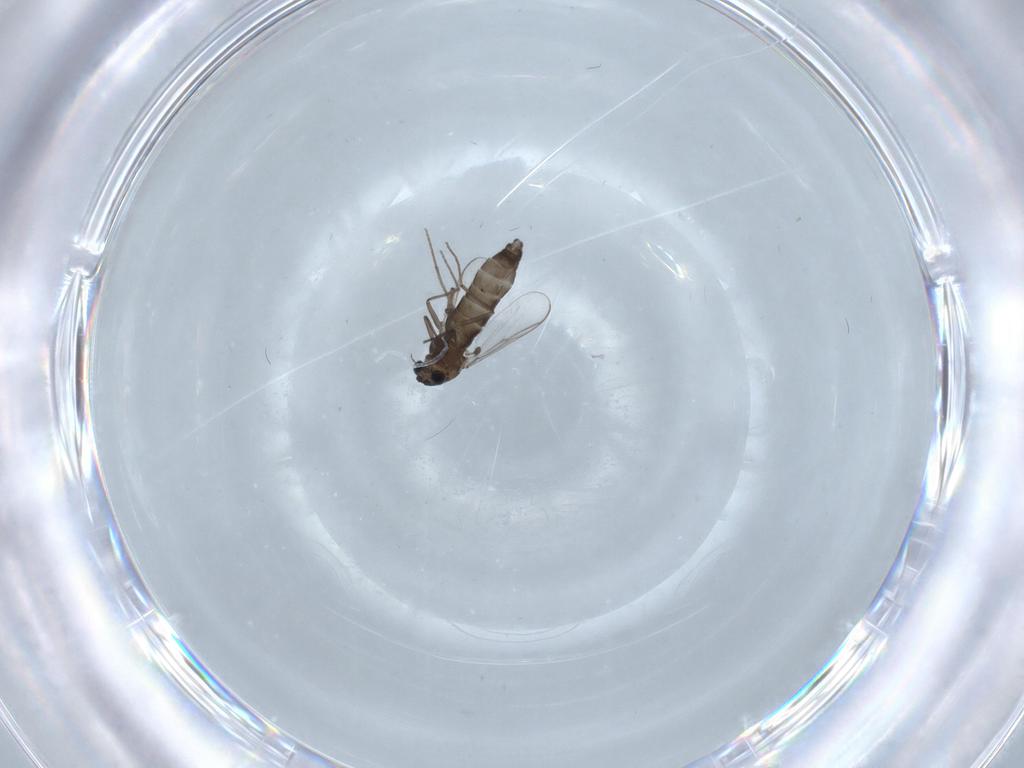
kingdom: Animalia
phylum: Arthropoda
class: Insecta
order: Diptera
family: Chironomidae
